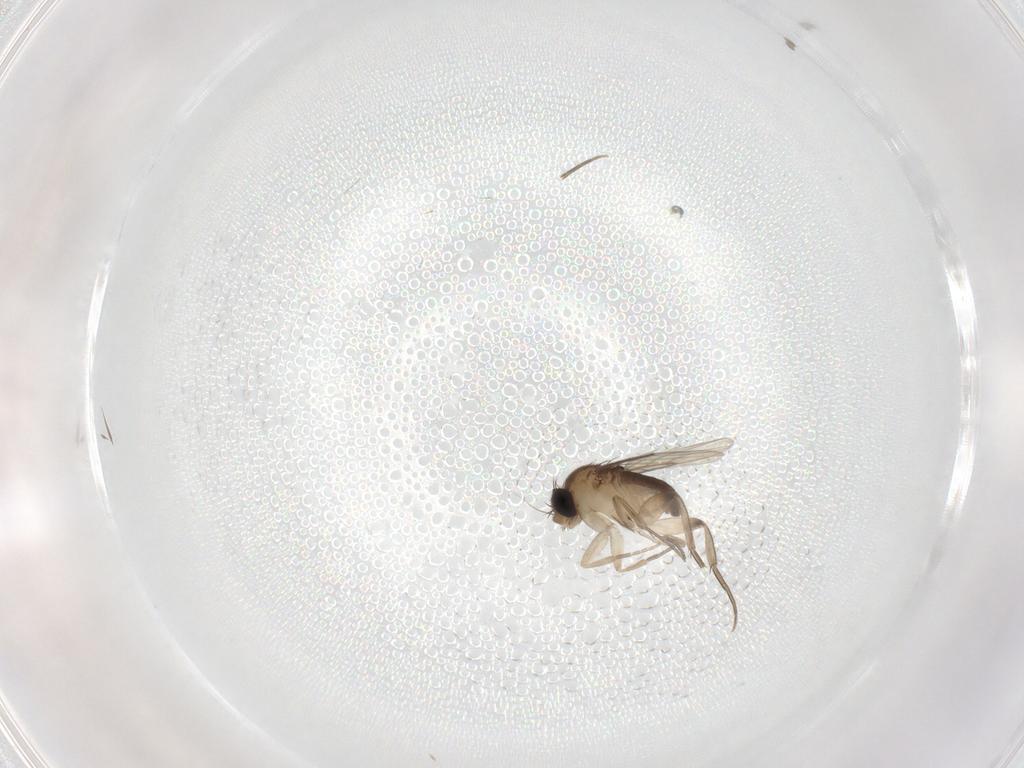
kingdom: Animalia
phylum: Arthropoda
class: Insecta
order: Diptera
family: Phoridae
